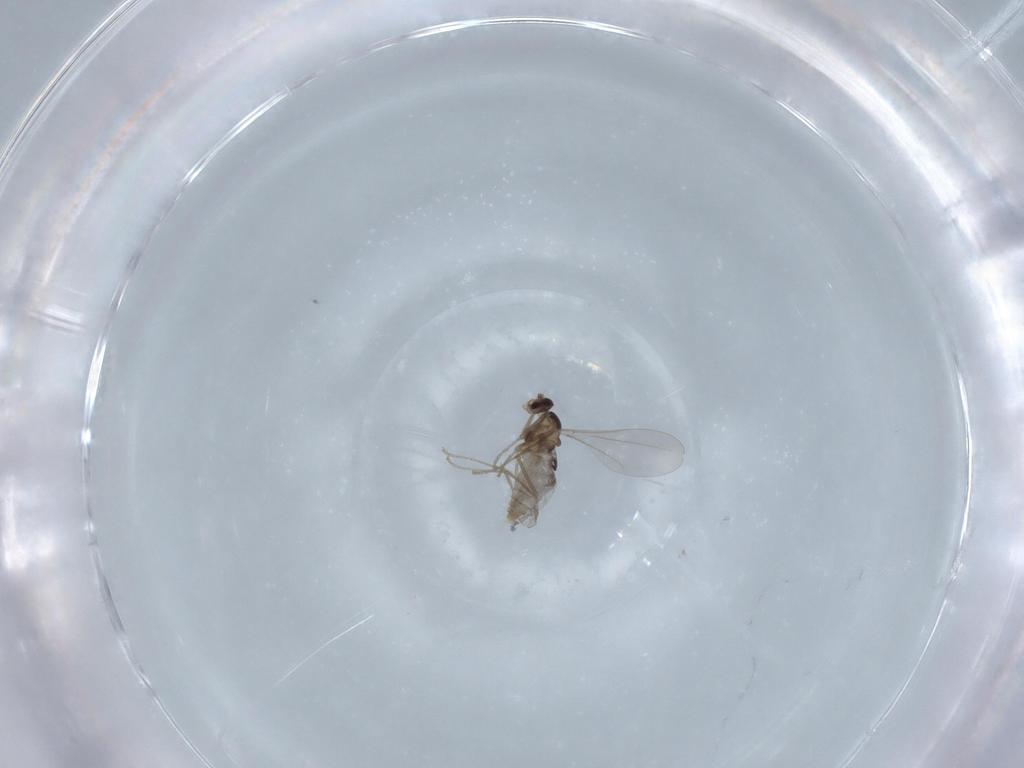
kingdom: Animalia
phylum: Arthropoda
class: Insecta
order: Diptera
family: Cecidomyiidae
